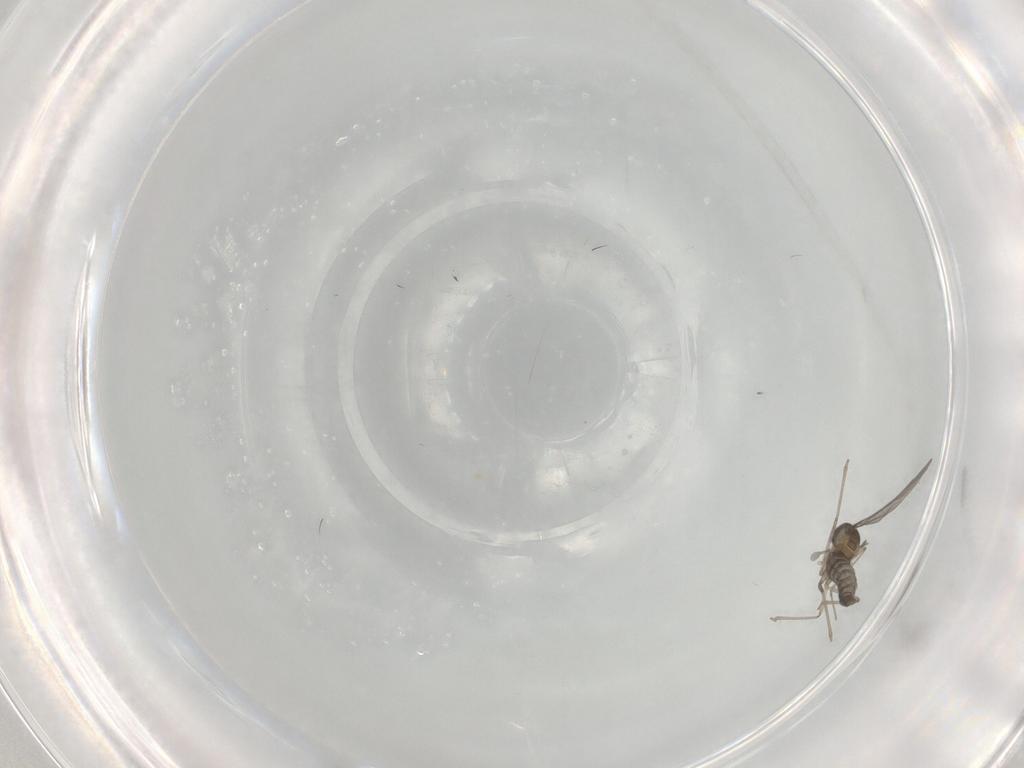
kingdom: Animalia
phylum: Arthropoda
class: Insecta
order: Diptera
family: Cecidomyiidae
